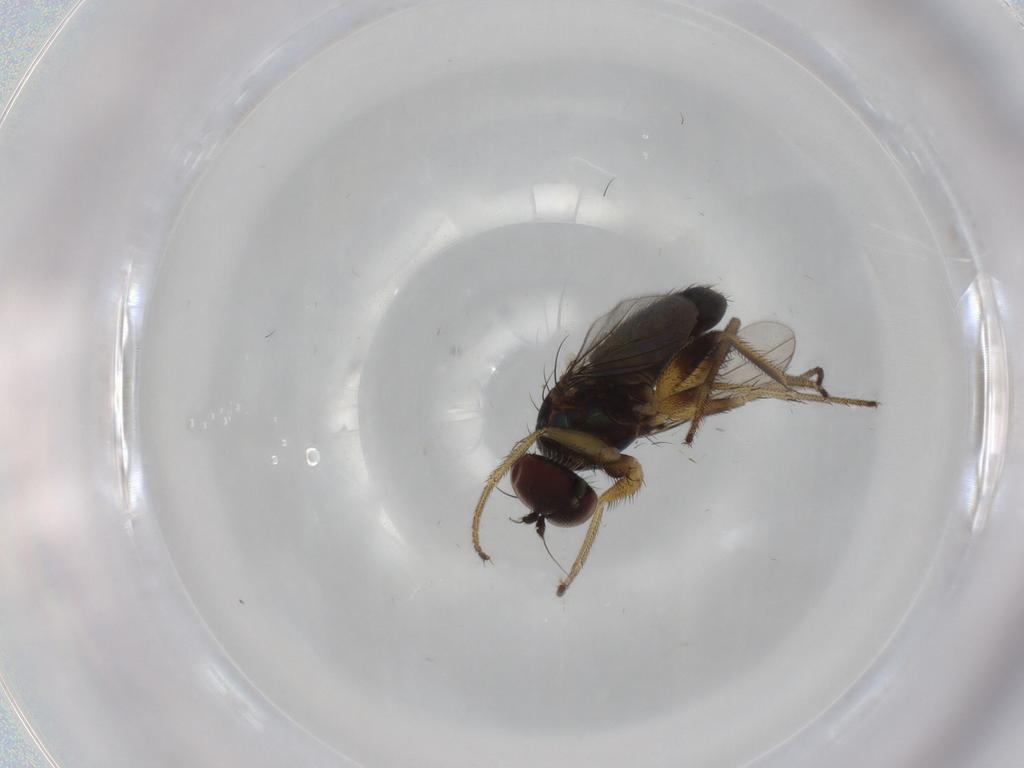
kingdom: Animalia
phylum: Arthropoda
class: Insecta
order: Diptera
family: Dolichopodidae
